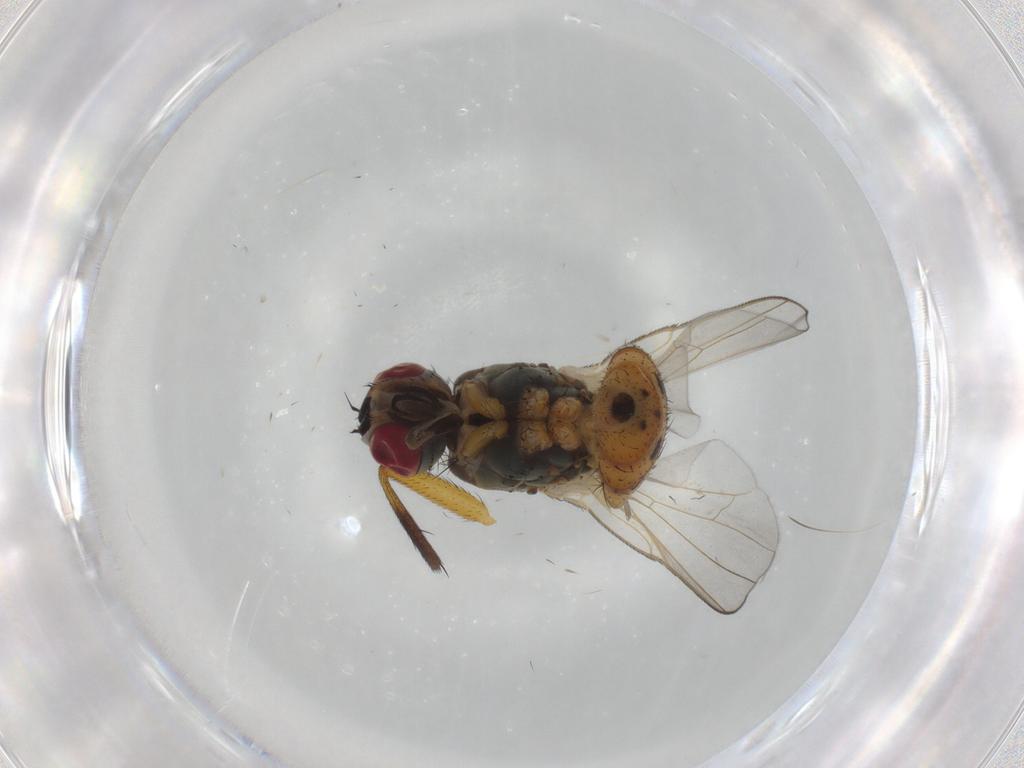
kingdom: Animalia
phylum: Arthropoda
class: Insecta
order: Diptera
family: Muscidae
